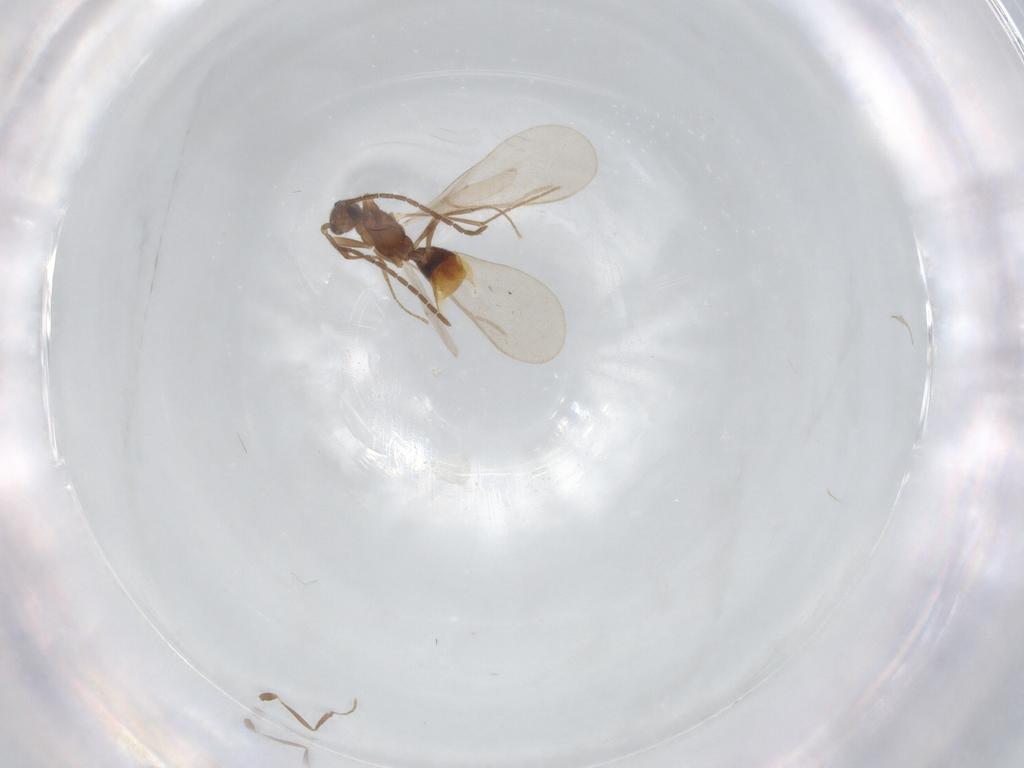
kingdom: Animalia
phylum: Arthropoda
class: Insecta
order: Hymenoptera
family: Formicidae
